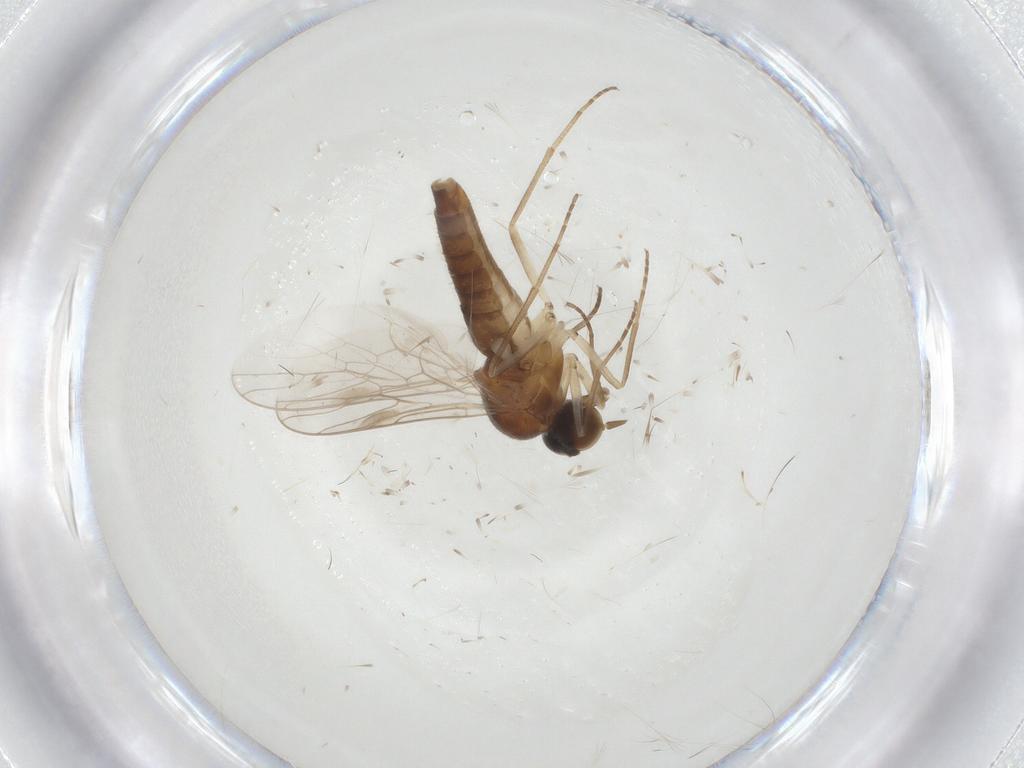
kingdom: Animalia
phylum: Arthropoda
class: Insecta
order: Diptera
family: Scenopinidae
